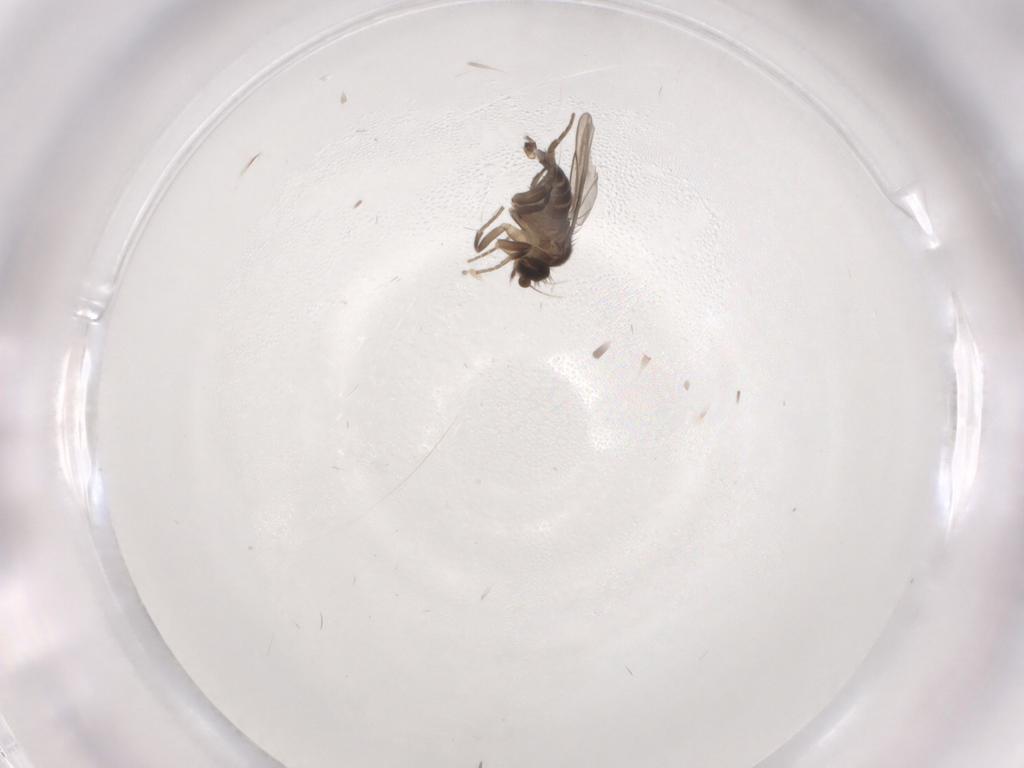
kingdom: Animalia
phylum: Arthropoda
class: Insecta
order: Diptera
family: Phoridae
